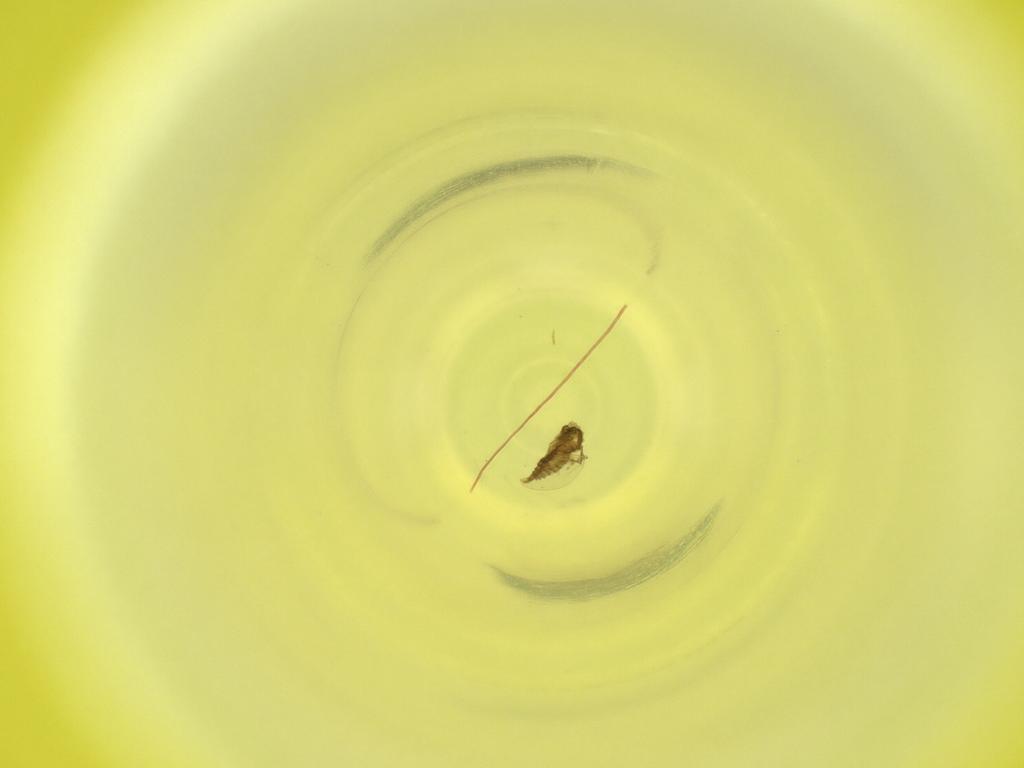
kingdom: Animalia
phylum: Arthropoda
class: Insecta
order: Diptera
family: Cecidomyiidae
